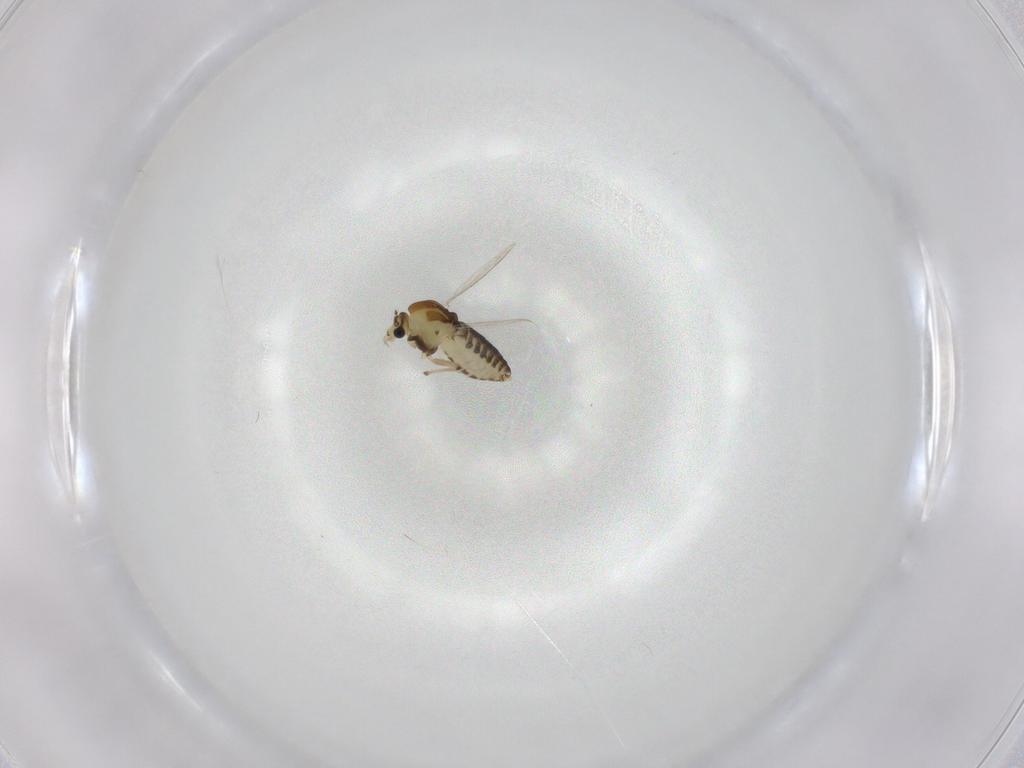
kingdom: Animalia
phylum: Arthropoda
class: Insecta
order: Diptera
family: Chironomidae
